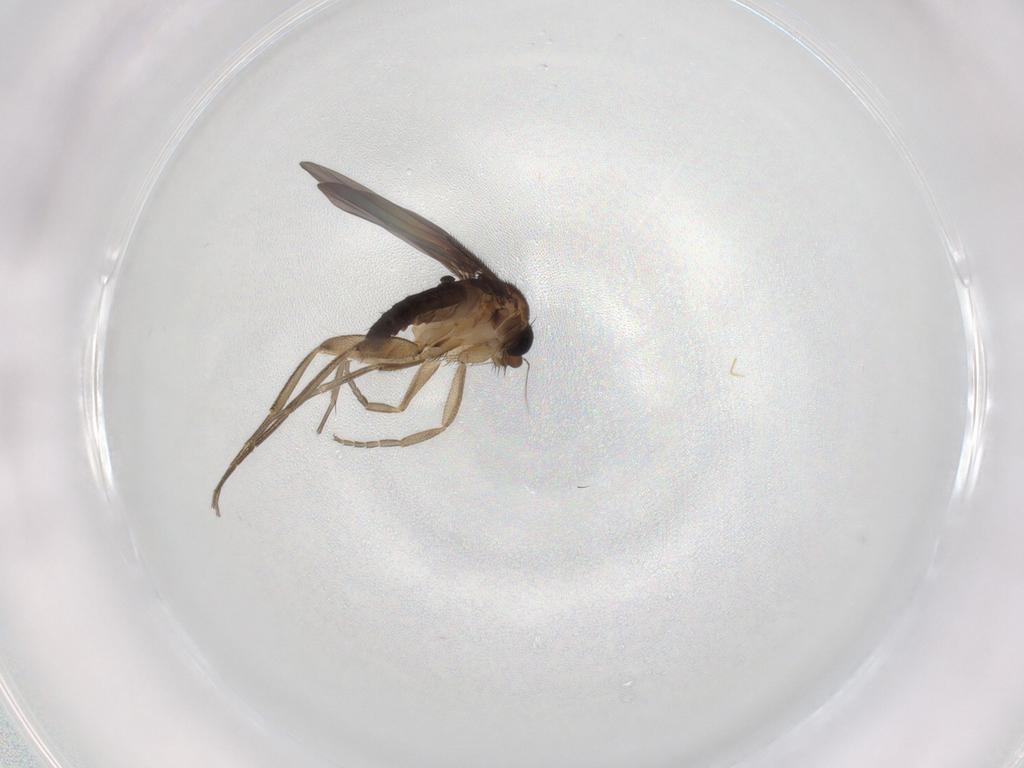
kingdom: Animalia
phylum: Arthropoda
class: Insecta
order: Diptera
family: Phoridae
